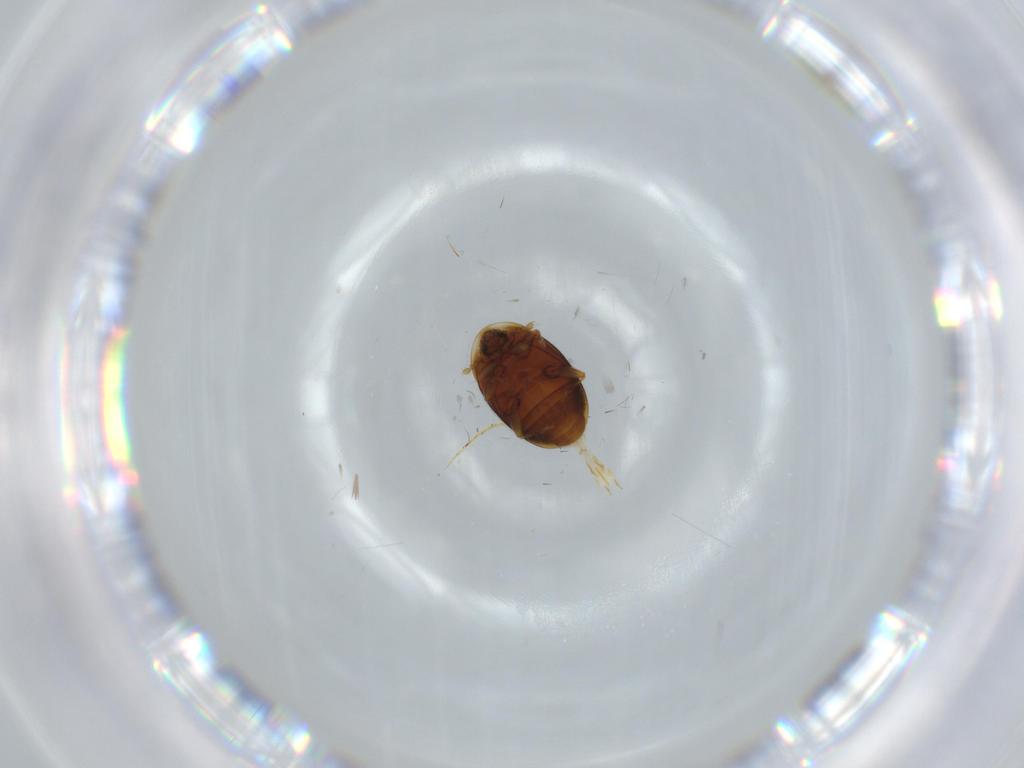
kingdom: Animalia
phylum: Arthropoda
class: Insecta
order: Coleoptera
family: Corylophidae
